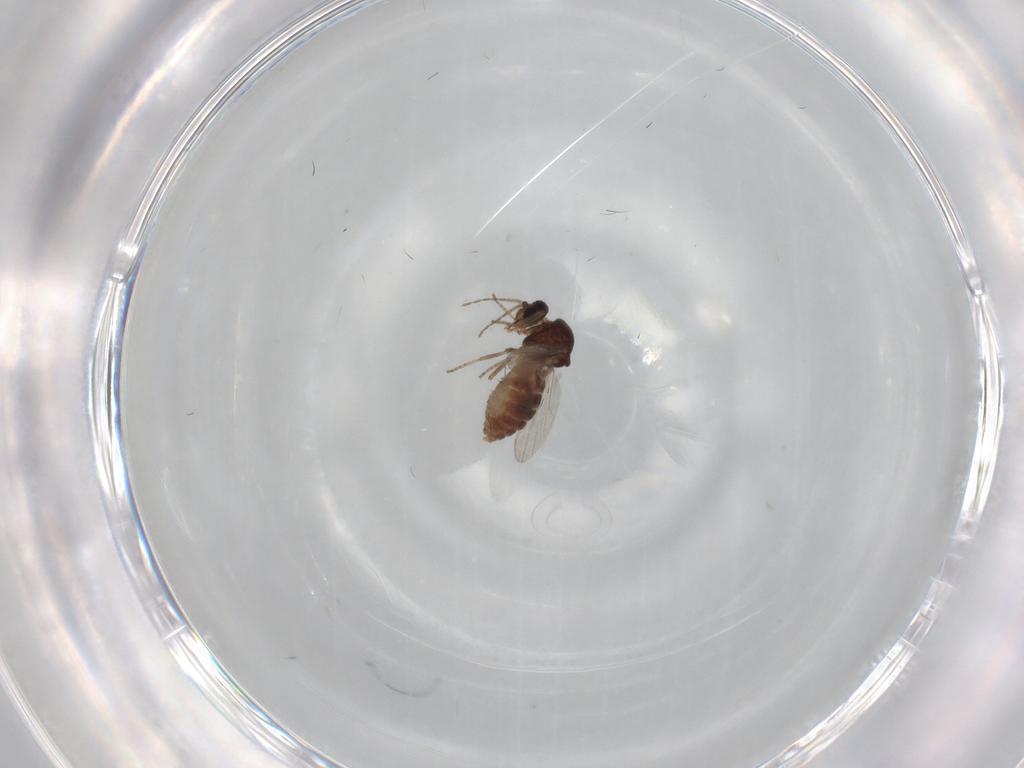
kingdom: Animalia
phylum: Arthropoda
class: Insecta
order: Diptera
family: Ceratopogonidae
